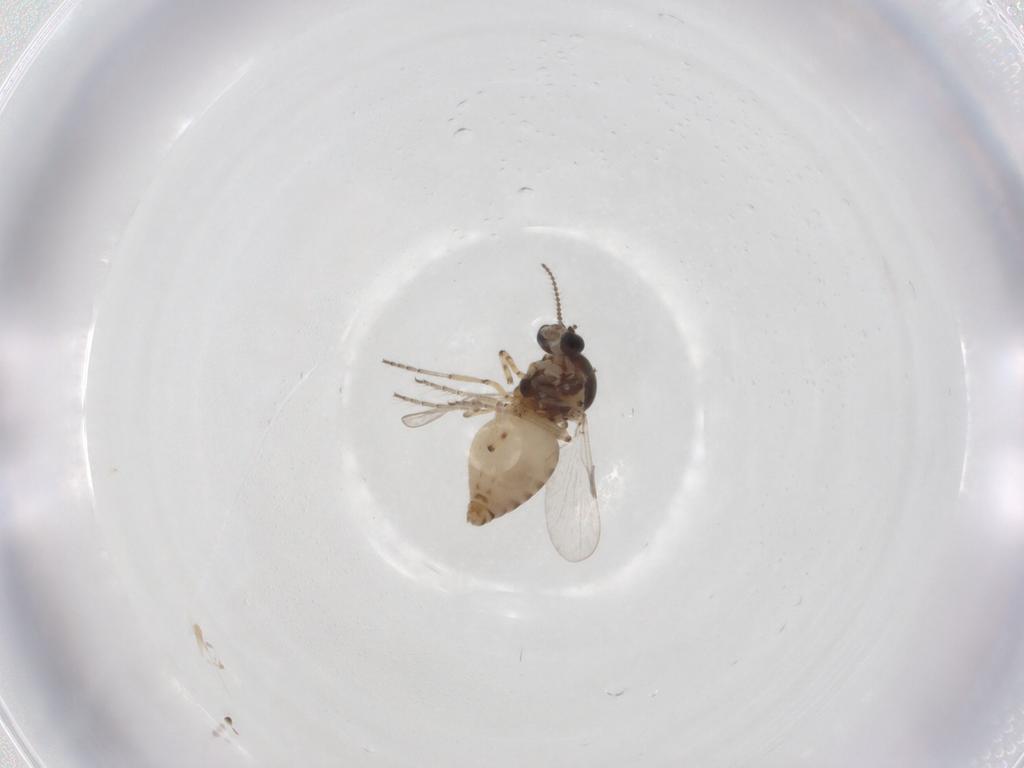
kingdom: Animalia
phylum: Arthropoda
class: Insecta
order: Diptera
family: Ceratopogonidae
